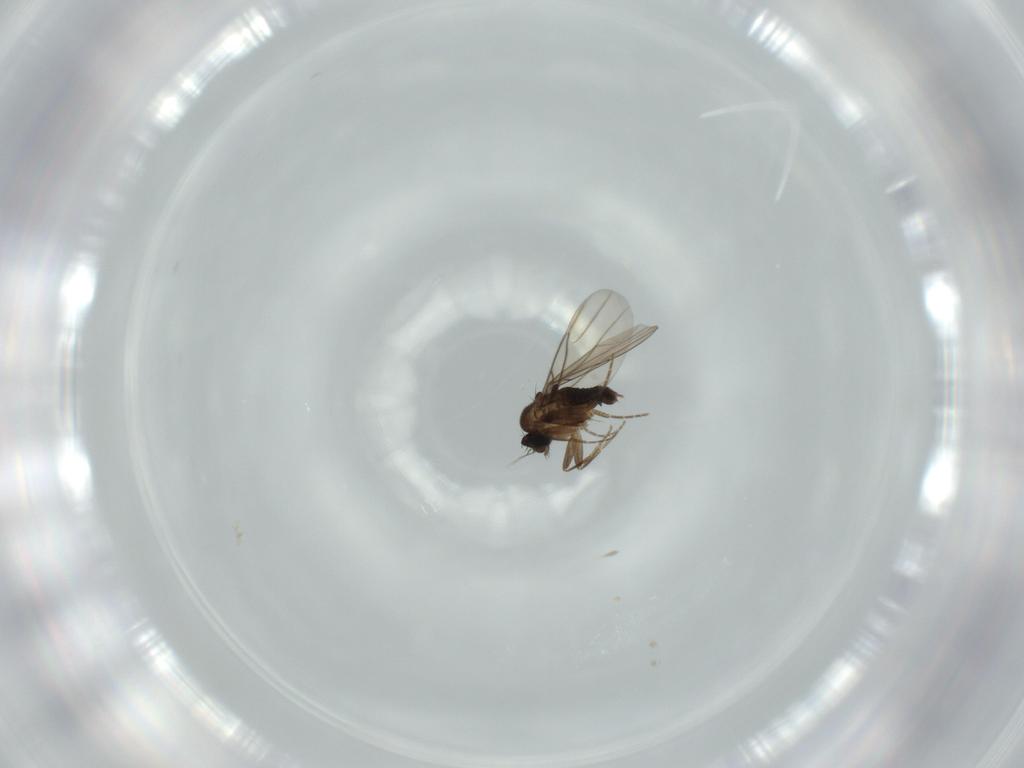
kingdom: Animalia
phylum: Arthropoda
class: Insecta
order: Diptera
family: Phoridae
